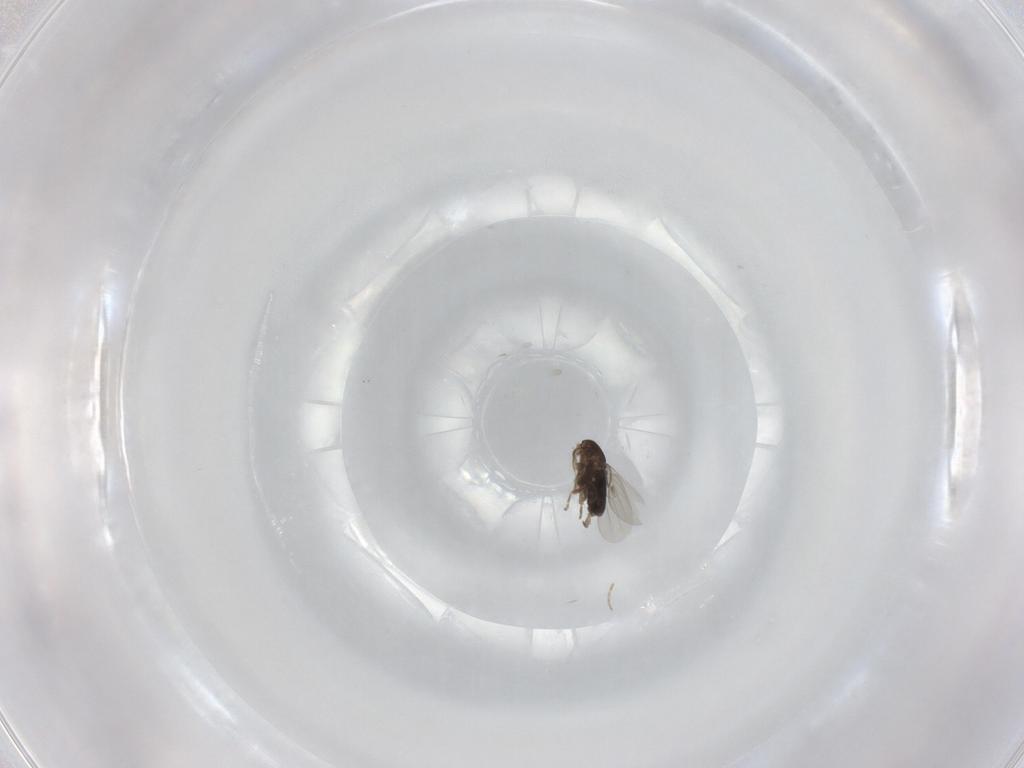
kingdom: Animalia
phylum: Arthropoda
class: Insecta
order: Diptera
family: Phoridae
